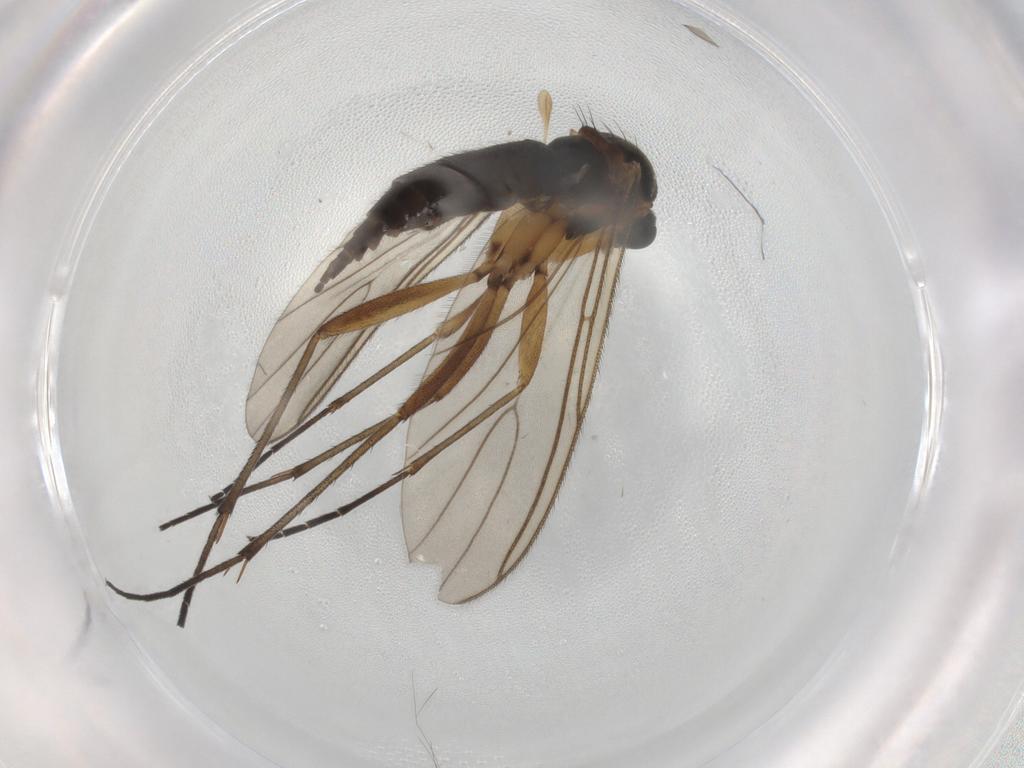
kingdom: Animalia
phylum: Arthropoda
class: Insecta
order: Diptera
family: Sciaridae
